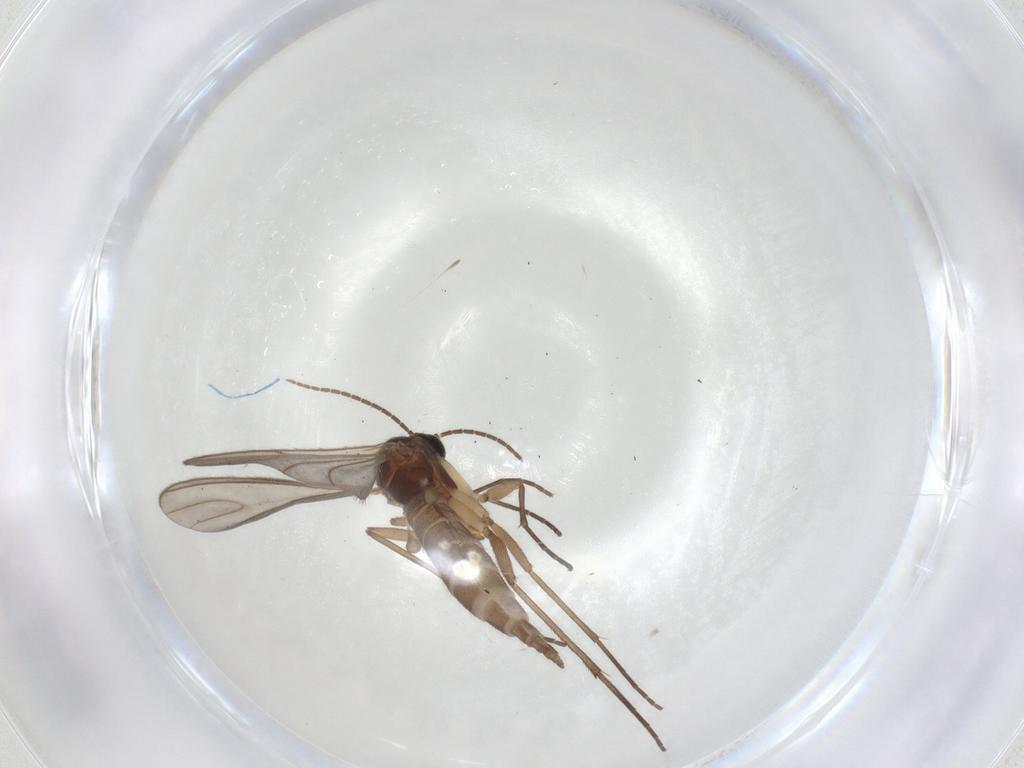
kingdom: Animalia
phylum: Arthropoda
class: Insecta
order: Diptera
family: Sciaridae
